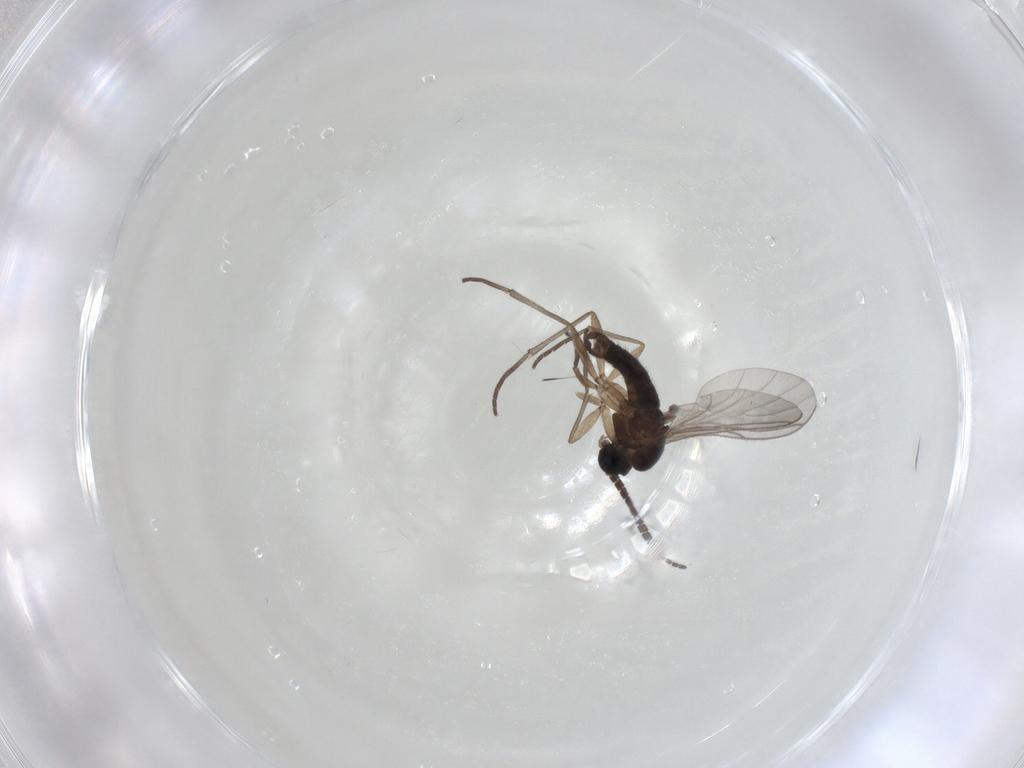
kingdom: Animalia
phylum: Arthropoda
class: Insecta
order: Diptera
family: Sciaridae
